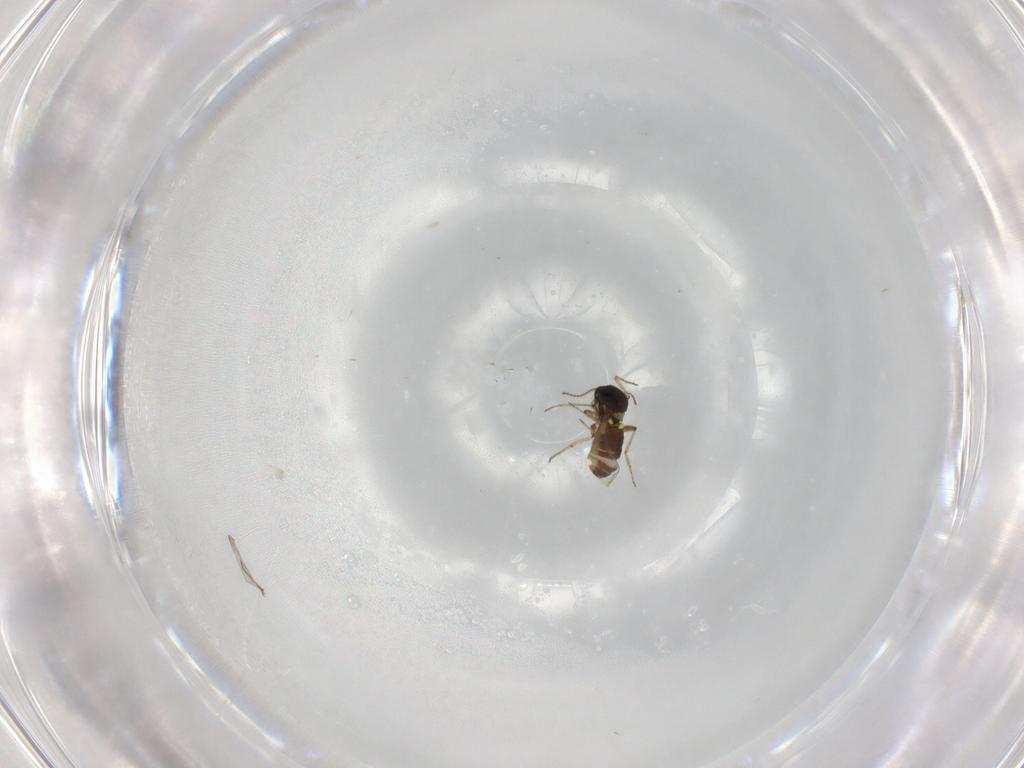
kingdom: Animalia
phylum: Arthropoda
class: Insecta
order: Diptera
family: Ceratopogonidae
